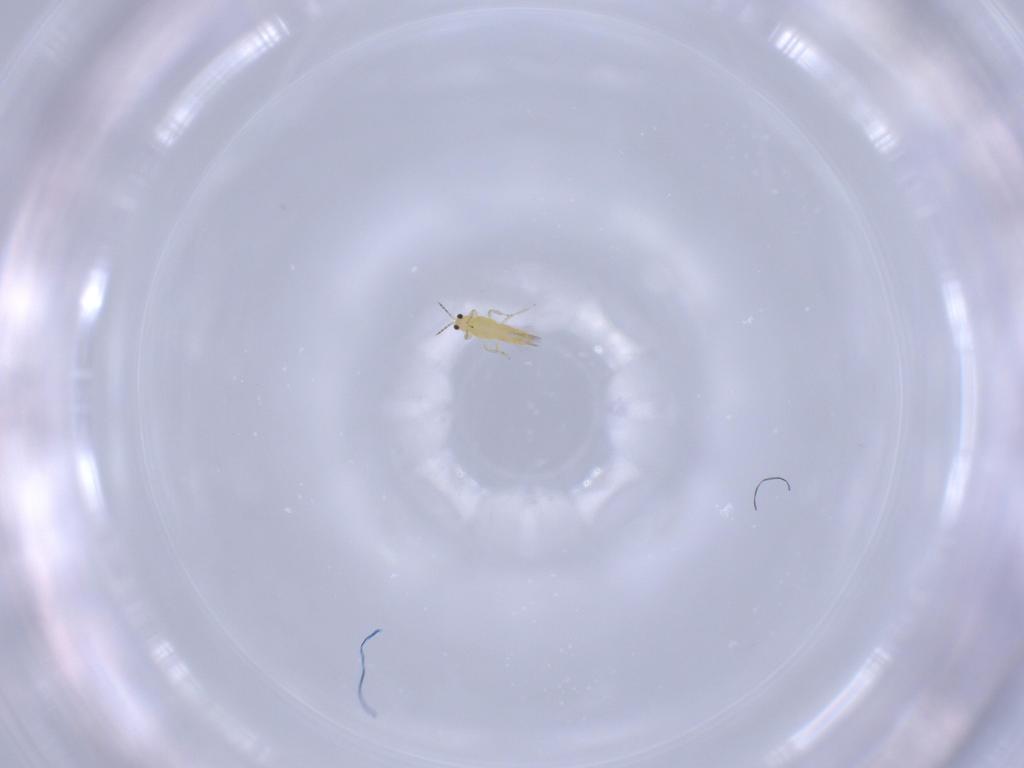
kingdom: Animalia
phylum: Arthropoda
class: Insecta
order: Thysanoptera
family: Thripidae
